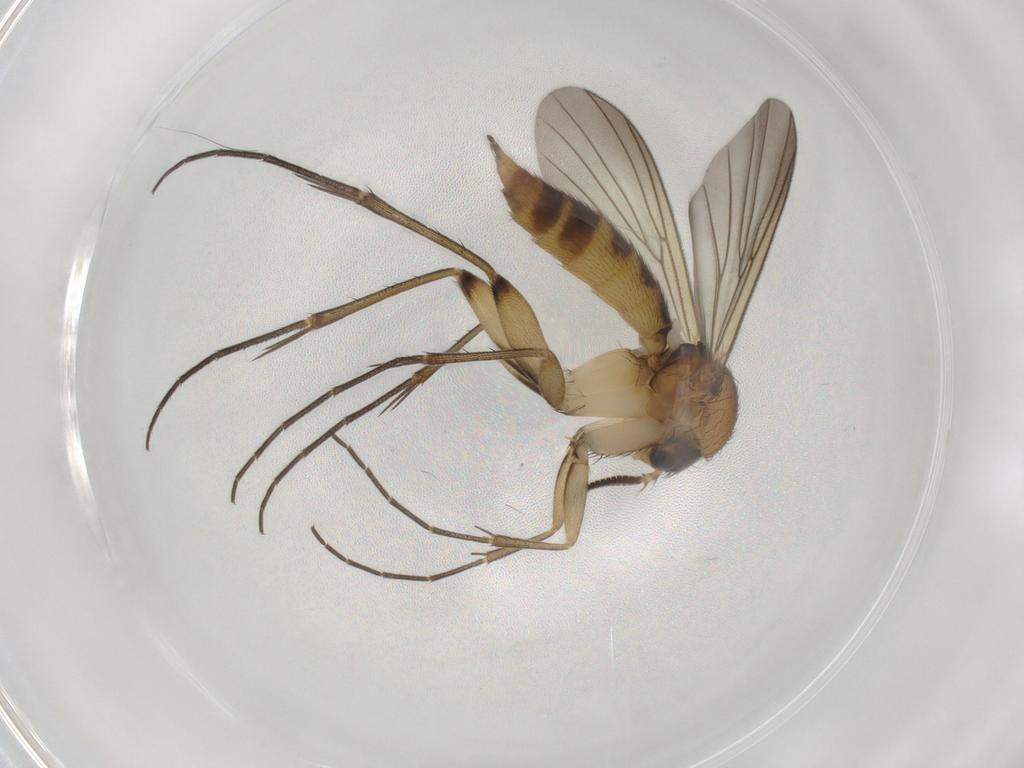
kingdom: Animalia
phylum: Arthropoda
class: Insecta
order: Diptera
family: Mycetophilidae
